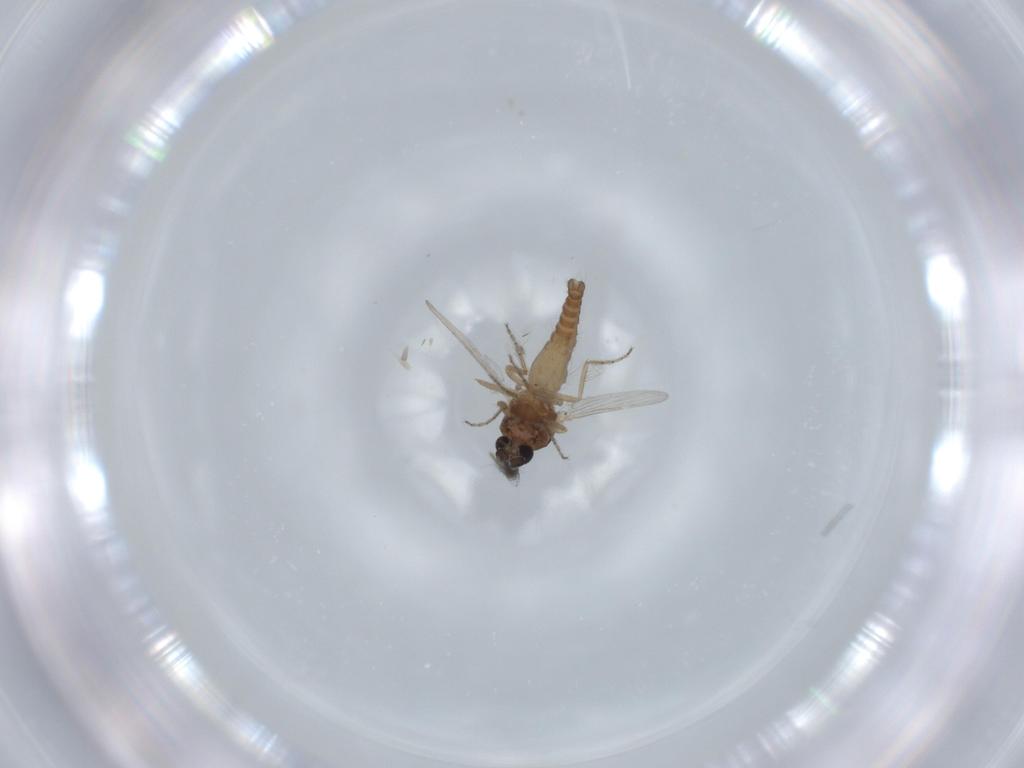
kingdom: Animalia
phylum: Arthropoda
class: Insecta
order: Diptera
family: Ceratopogonidae
